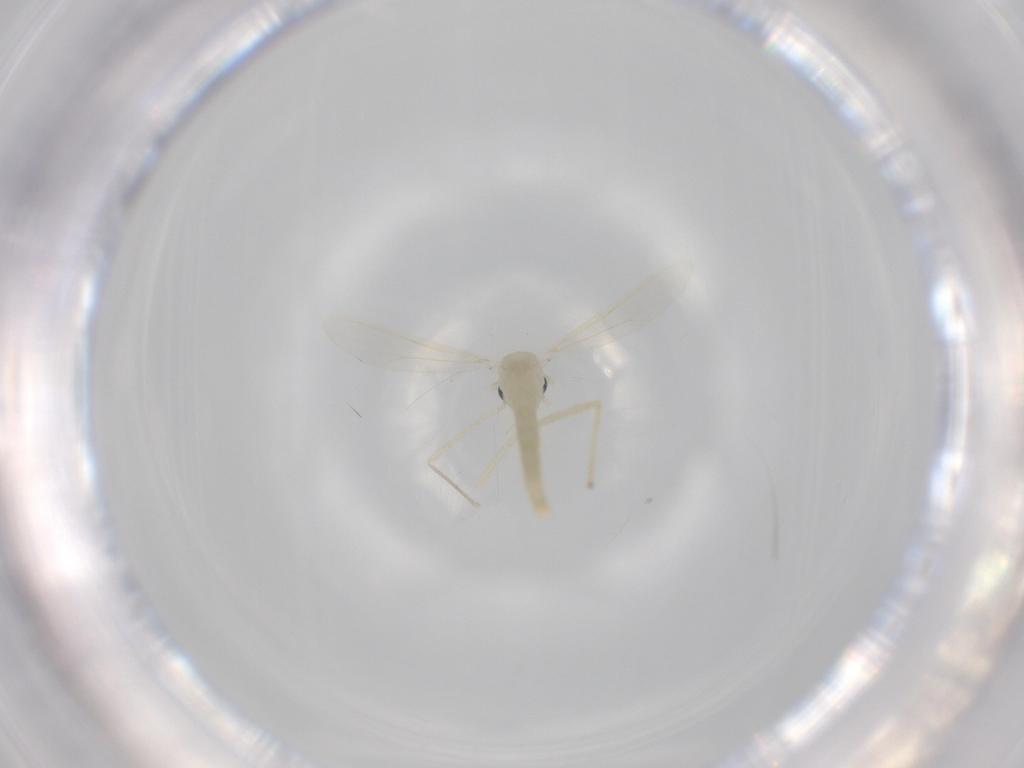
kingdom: Animalia
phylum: Arthropoda
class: Insecta
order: Diptera
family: Chironomidae
